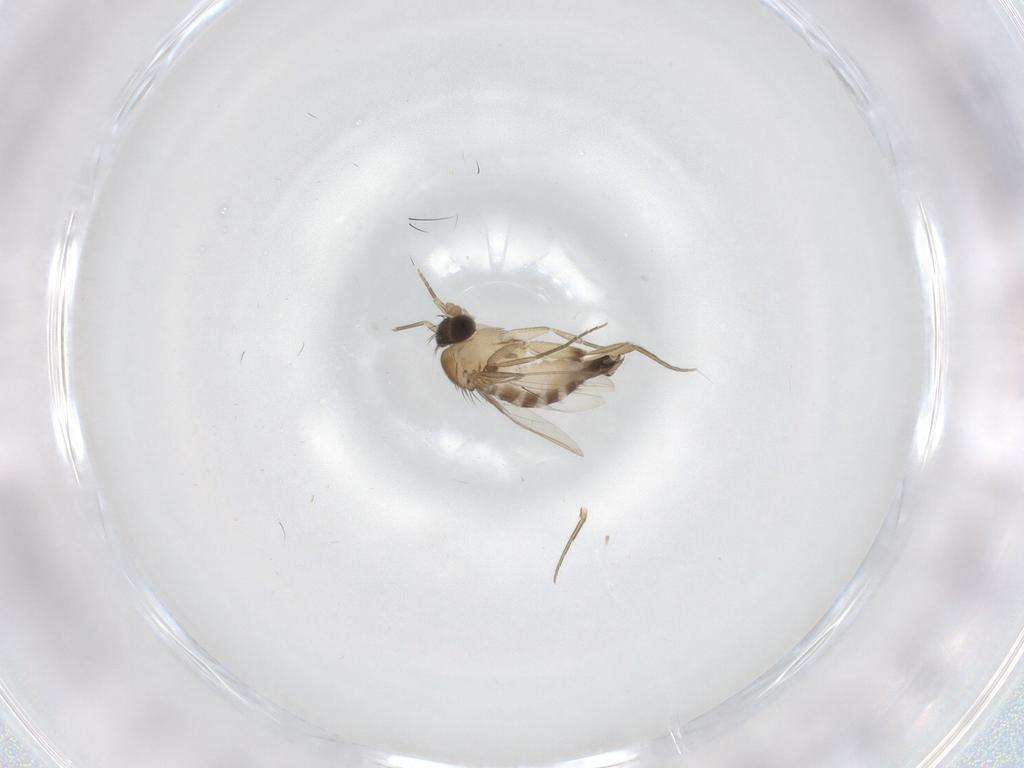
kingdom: Animalia
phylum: Arthropoda
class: Insecta
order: Diptera
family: Phoridae
